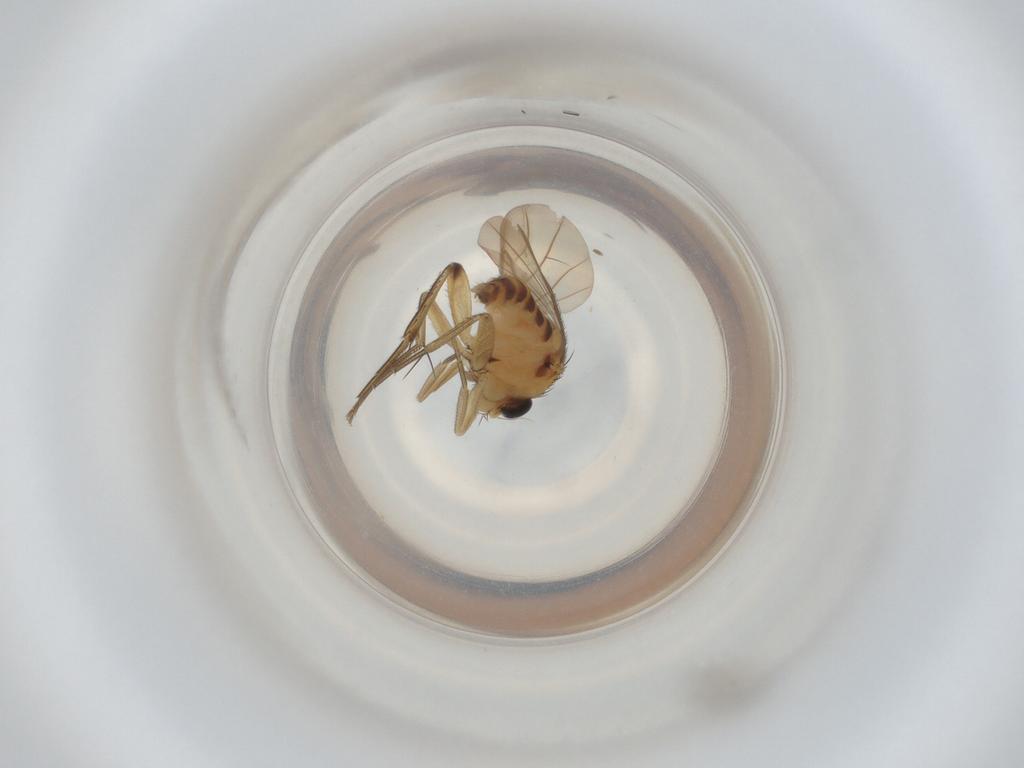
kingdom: Animalia
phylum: Arthropoda
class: Insecta
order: Diptera
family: Phoridae
